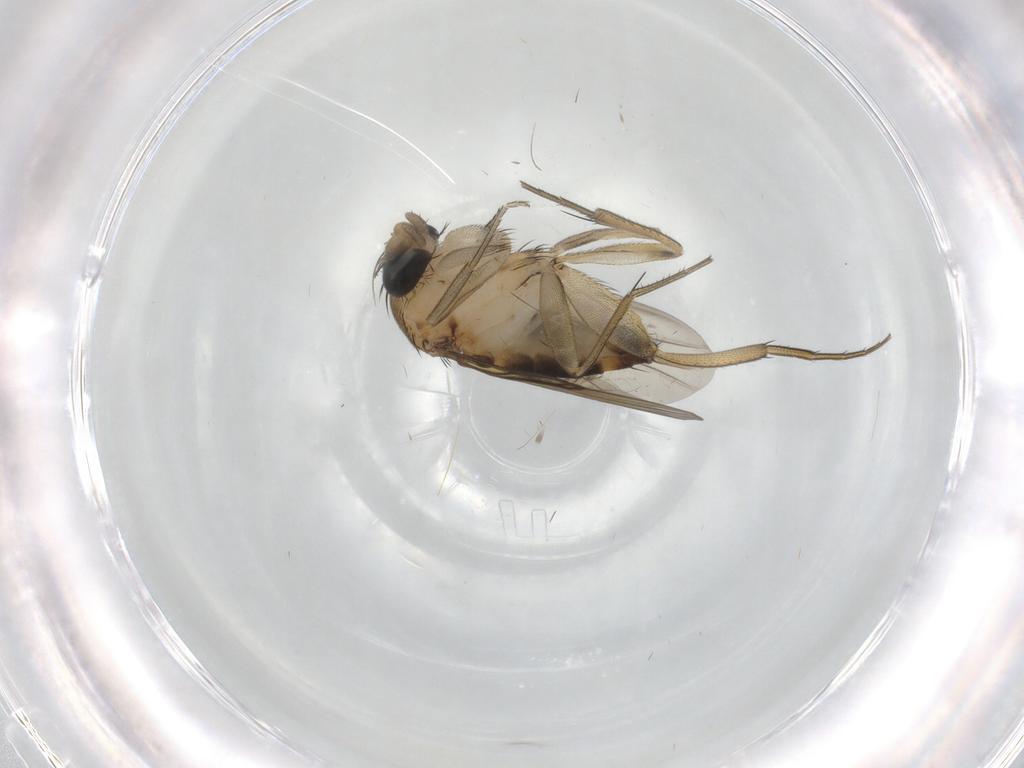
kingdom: Animalia
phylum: Arthropoda
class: Insecta
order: Diptera
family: Phoridae
